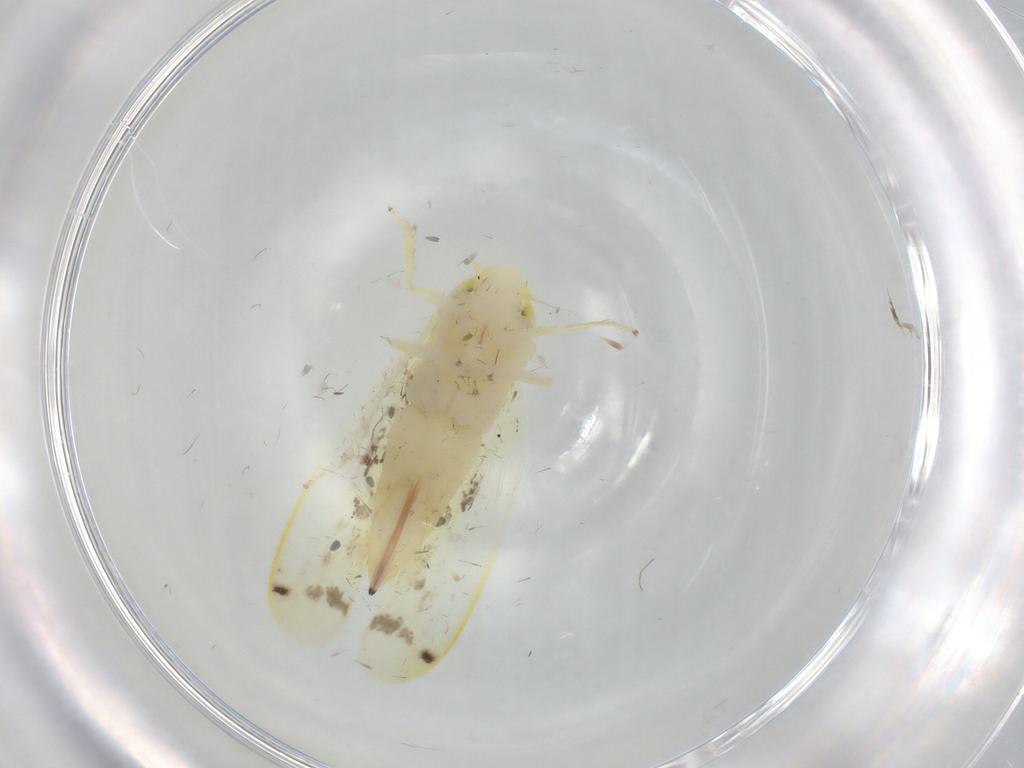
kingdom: Animalia
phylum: Arthropoda
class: Insecta
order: Hemiptera
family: Cicadellidae
